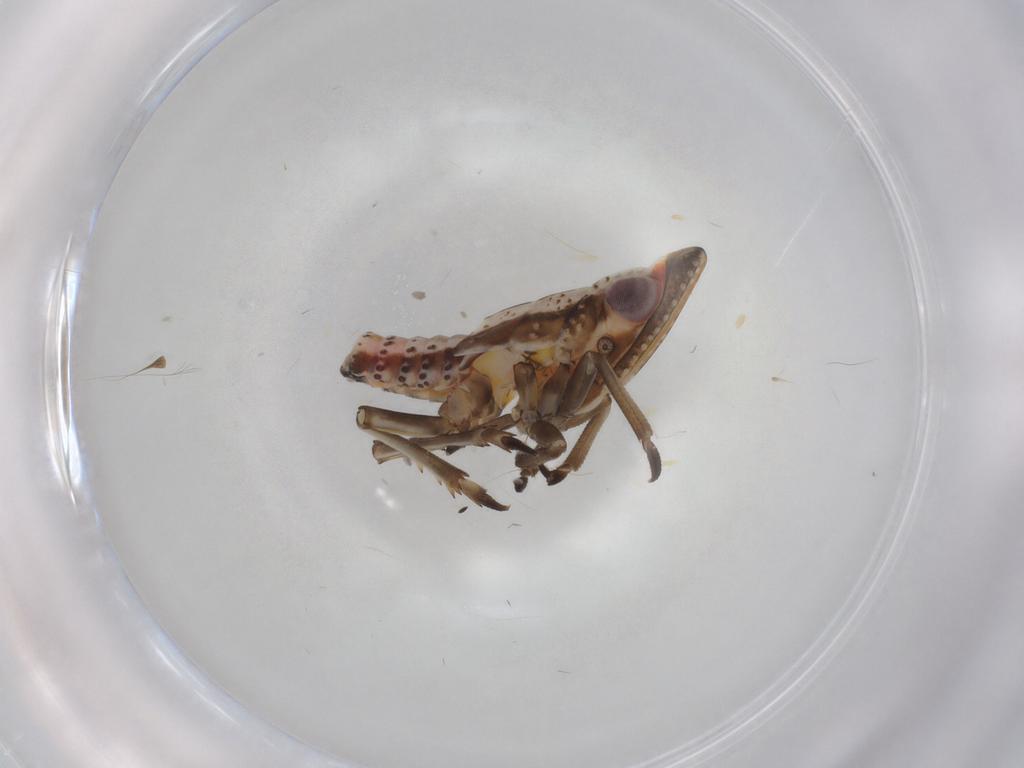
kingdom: Animalia
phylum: Arthropoda
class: Insecta
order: Hemiptera
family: Tropiduchidae
